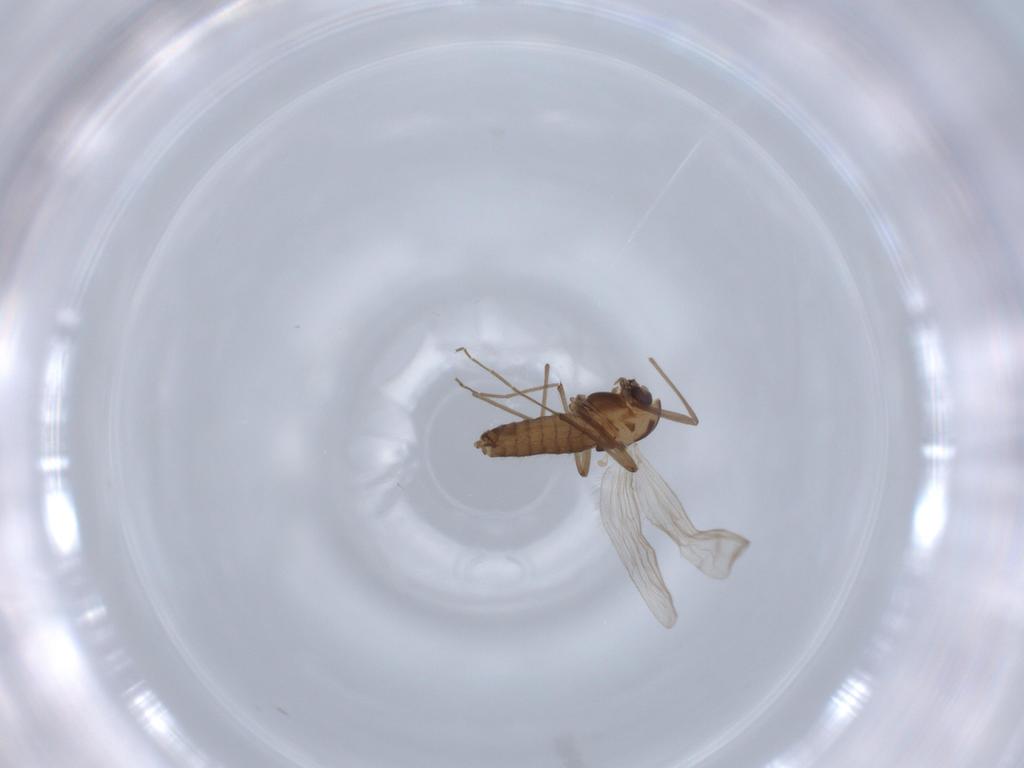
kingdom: Animalia
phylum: Arthropoda
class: Insecta
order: Diptera
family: Chironomidae
